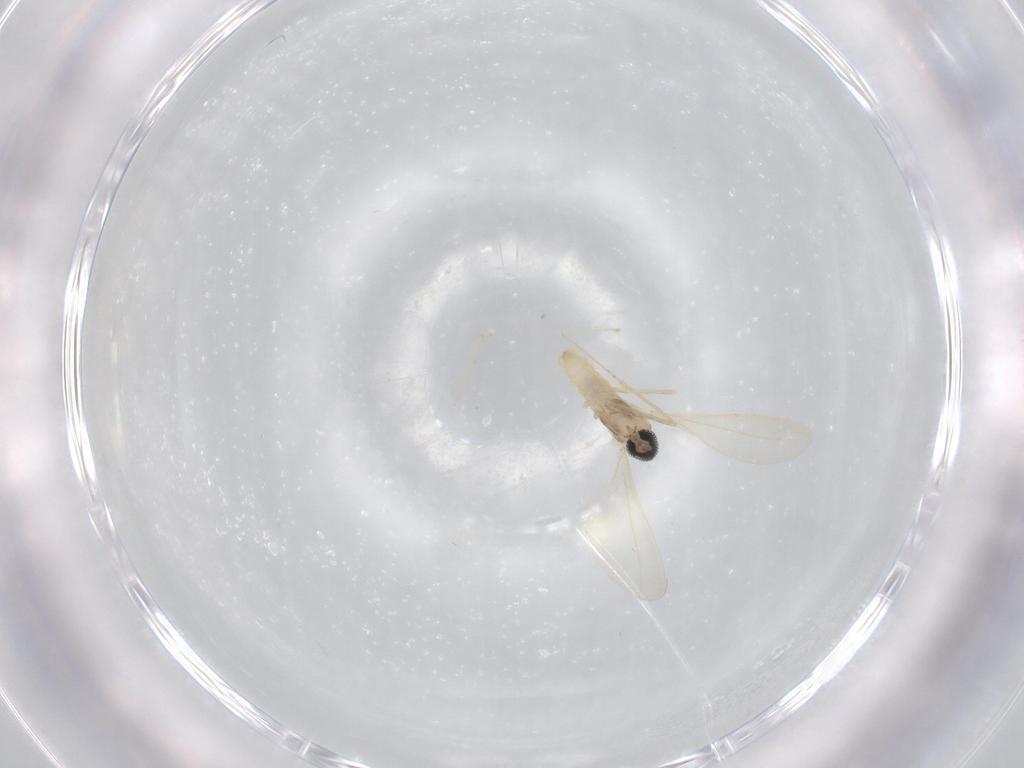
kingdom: Animalia
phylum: Arthropoda
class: Insecta
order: Diptera
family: Cecidomyiidae
